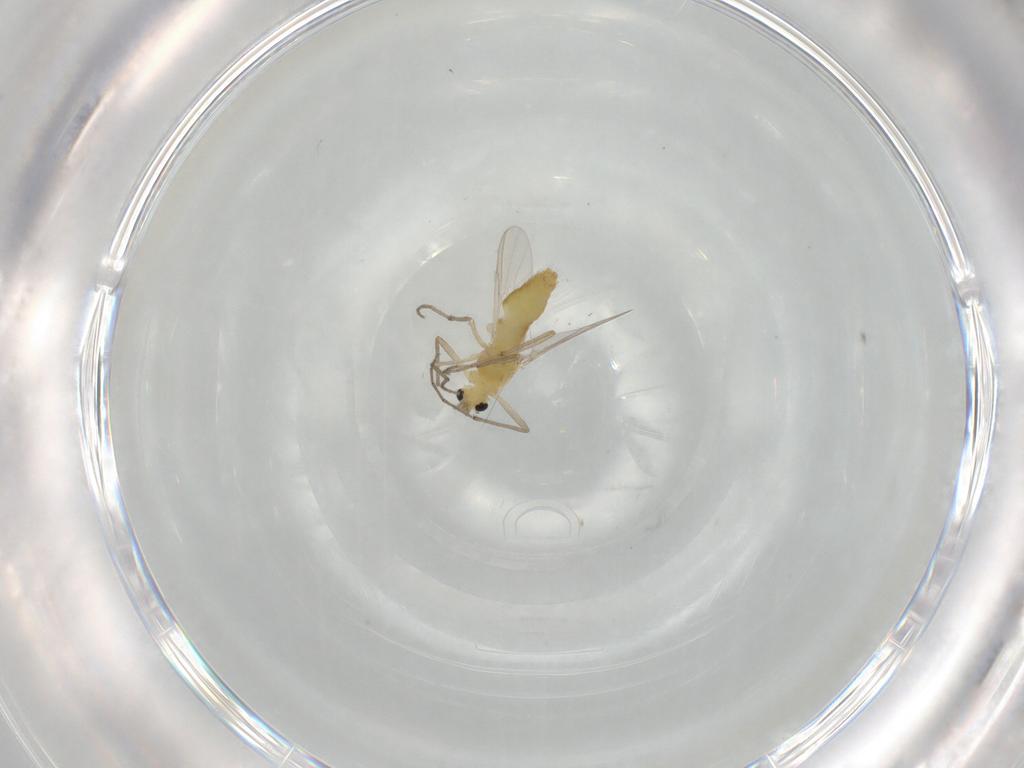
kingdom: Animalia
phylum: Arthropoda
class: Insecta
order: Diptera
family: Chironomidae
